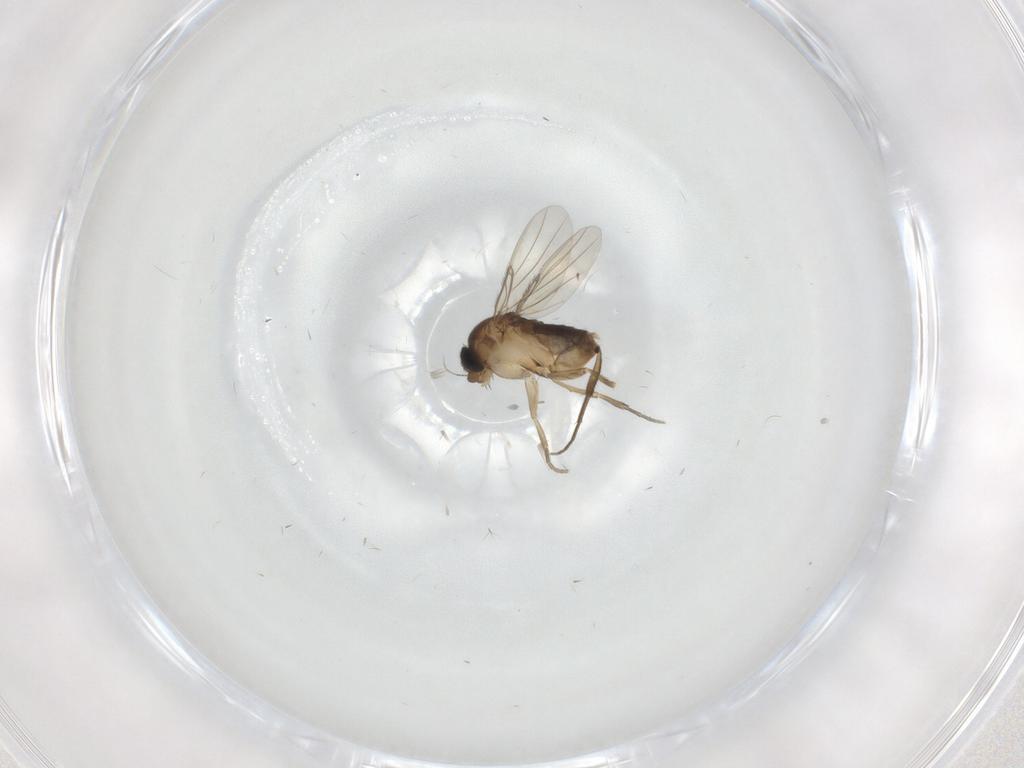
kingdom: Animalia
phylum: Arthropoda
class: Insecta
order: Diptera
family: Phoridae
